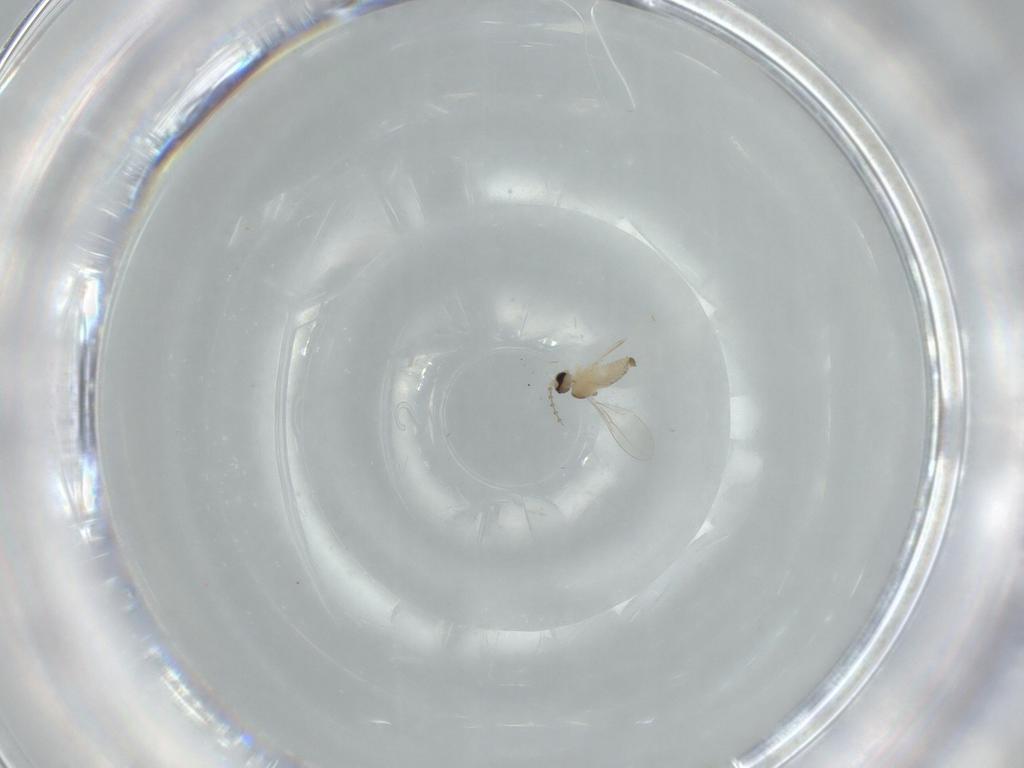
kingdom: Animalia
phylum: Arthropoda
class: Insecta
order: Diptera
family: Cecidomyiidae
